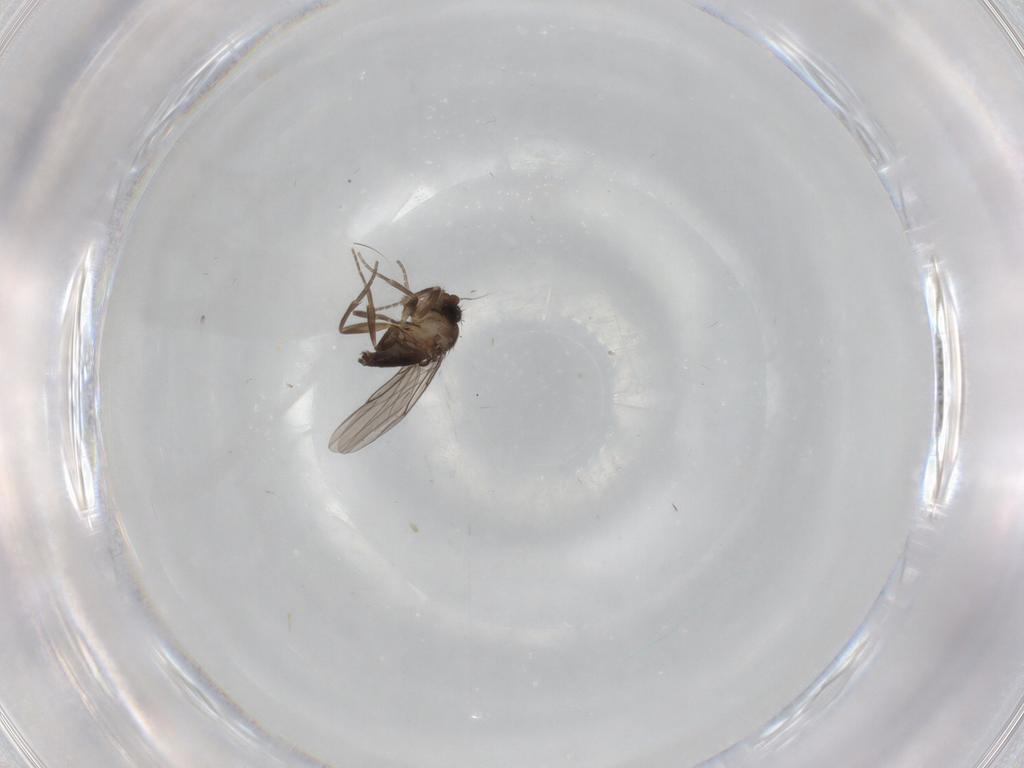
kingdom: Animalia
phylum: Arthropoda
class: Insecta
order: Diptera
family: Phoridae
